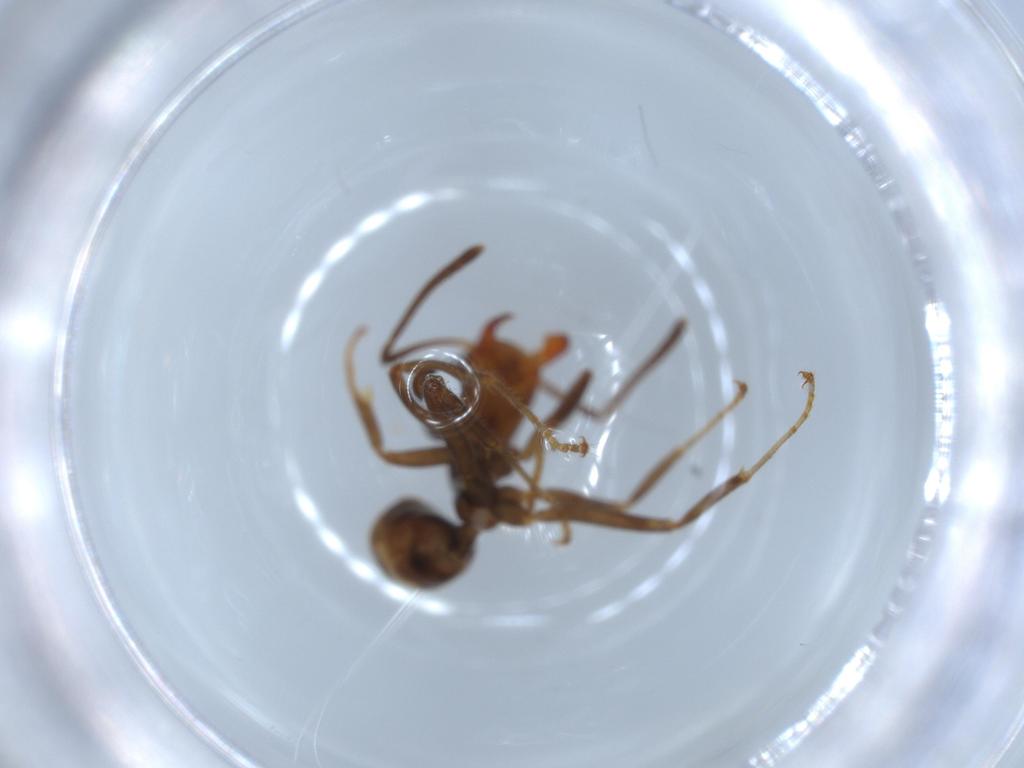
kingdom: Animalia
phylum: Arthropoda
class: Insecta
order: Hymenoptera
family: Formicidae
